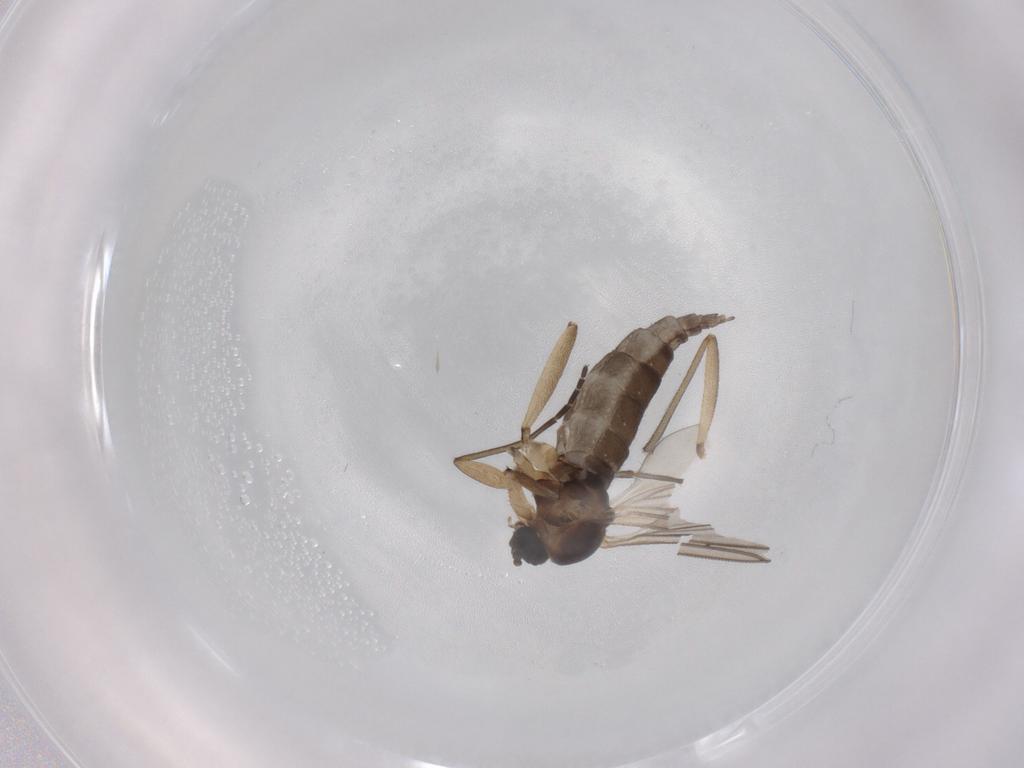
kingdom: Animalia
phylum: Arthropoda
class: Insecta
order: Diptera
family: Sciaridae
